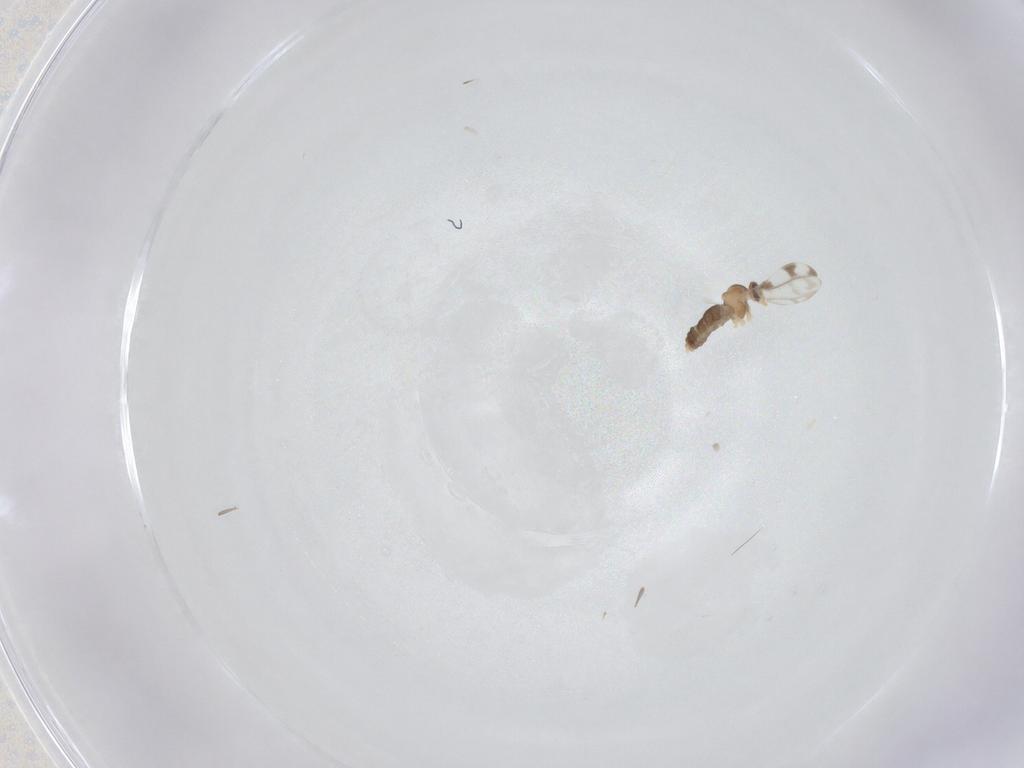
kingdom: Animalia
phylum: Arthropoda
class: Insecta
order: Diptera
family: Cecidomyiidae
